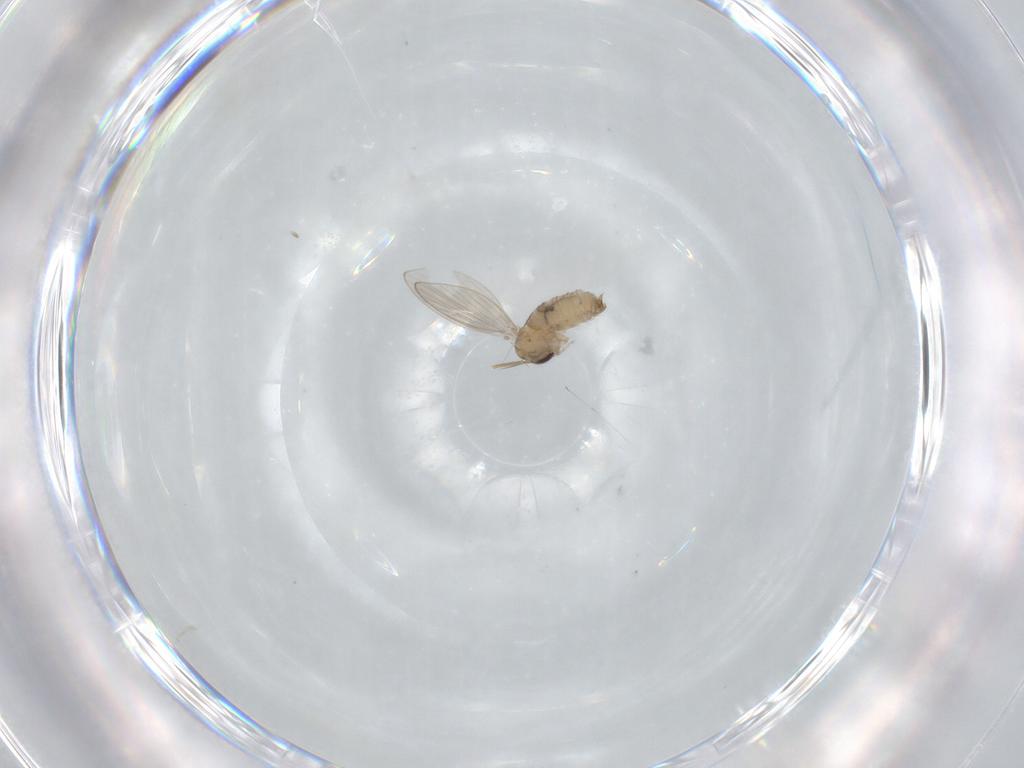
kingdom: Animalia
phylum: Arthropoda
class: Insecta
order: Diptera
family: Psychodidae
